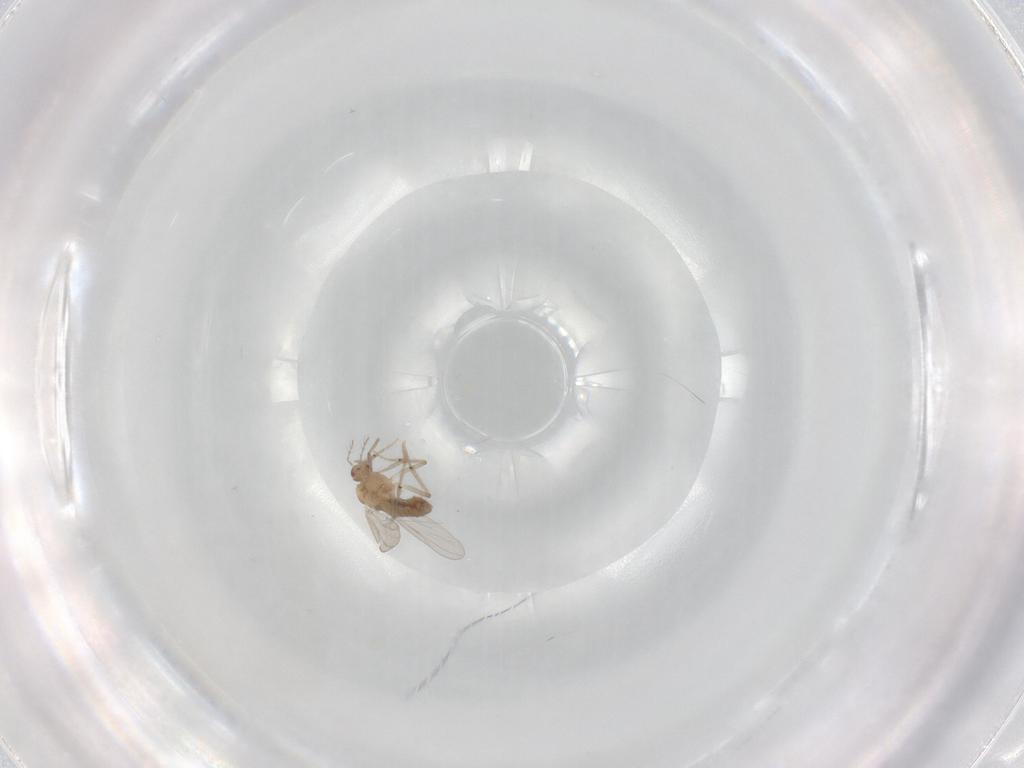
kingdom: Animalia
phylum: Arthropoda
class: Insecta
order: Diptera
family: Chironomidae
